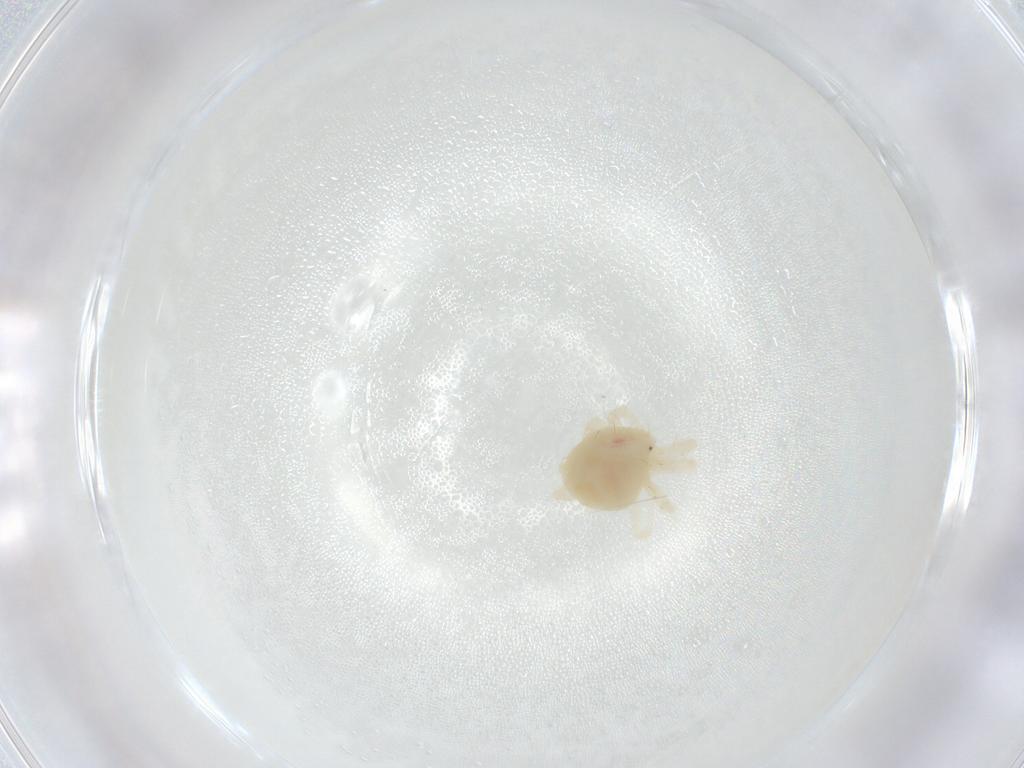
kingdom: Animalia
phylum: Arthropoda
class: Arachnida
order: Trombidiformes
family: Anystidae
